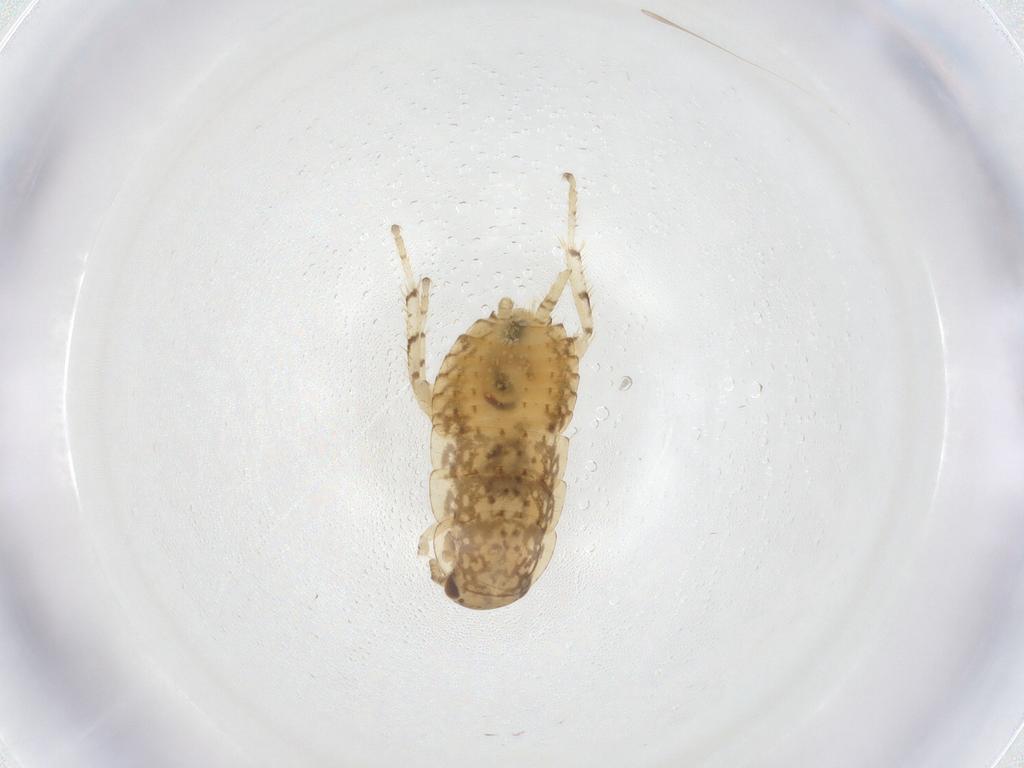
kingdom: Animalia
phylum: Arthropoda
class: Insecta
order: Blattodea
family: Ectobiidae
